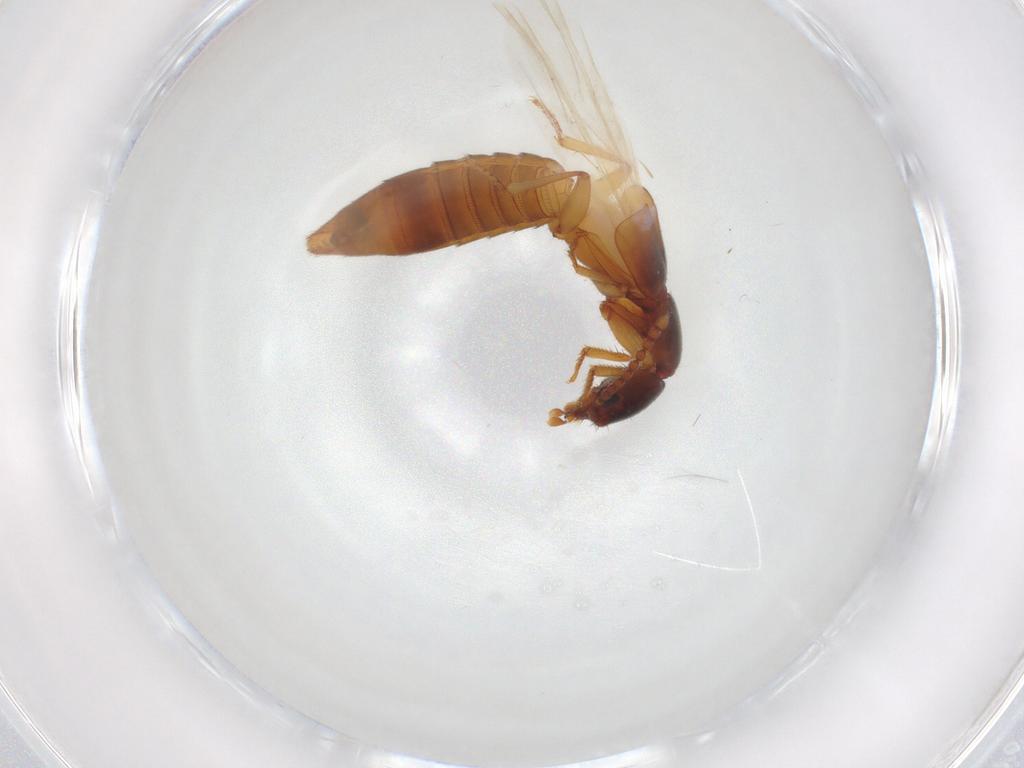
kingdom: Animalia
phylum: Arthropoda
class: Insecta
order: Coleoptera
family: Staphylinidae
